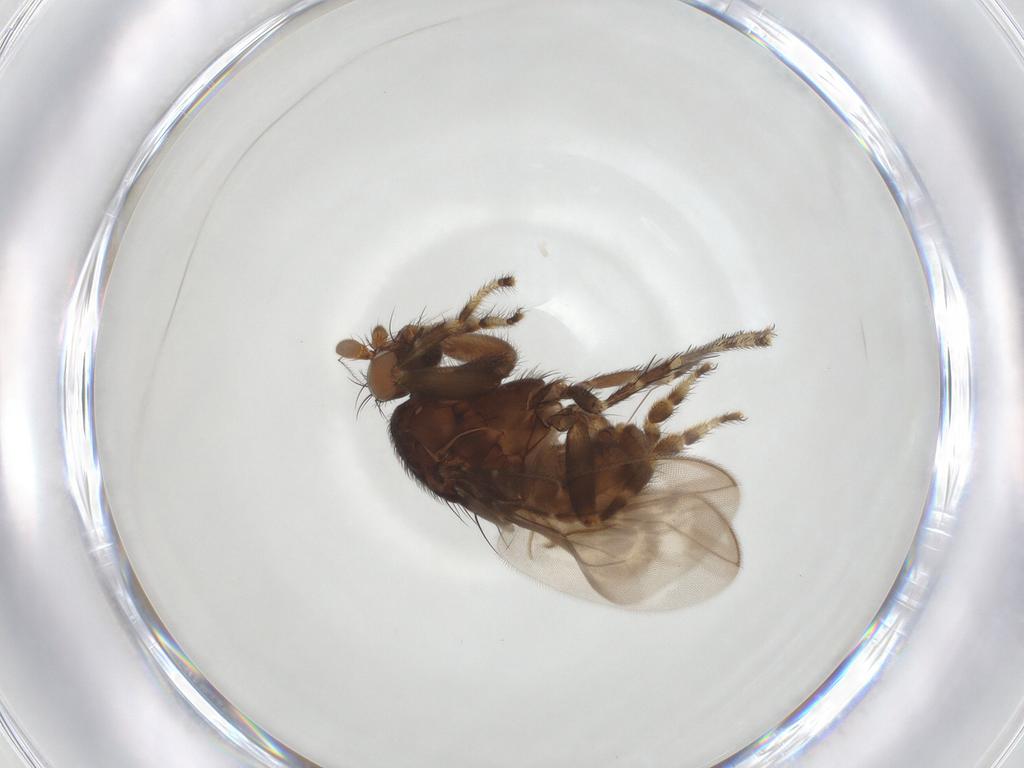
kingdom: Animalia
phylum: Arthropoda
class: Insecta
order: Diptera
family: Sphaeroceridae
